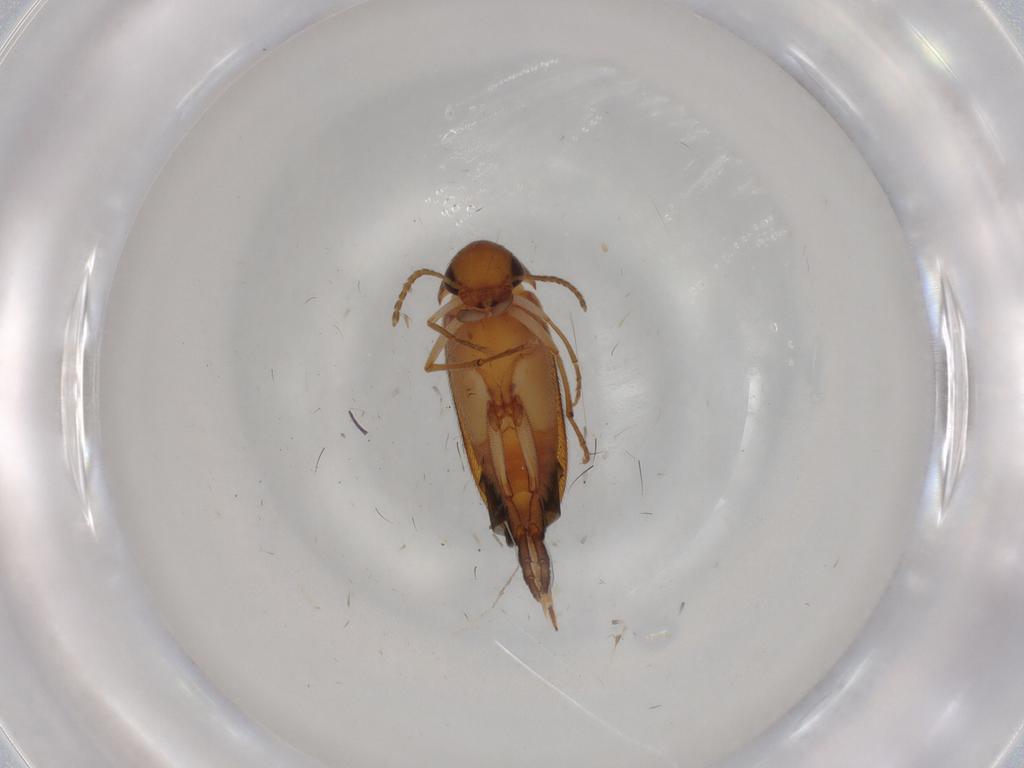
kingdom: Animalia
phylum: Arthropoda
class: Insecta
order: Coleoptera
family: Mordellidae
